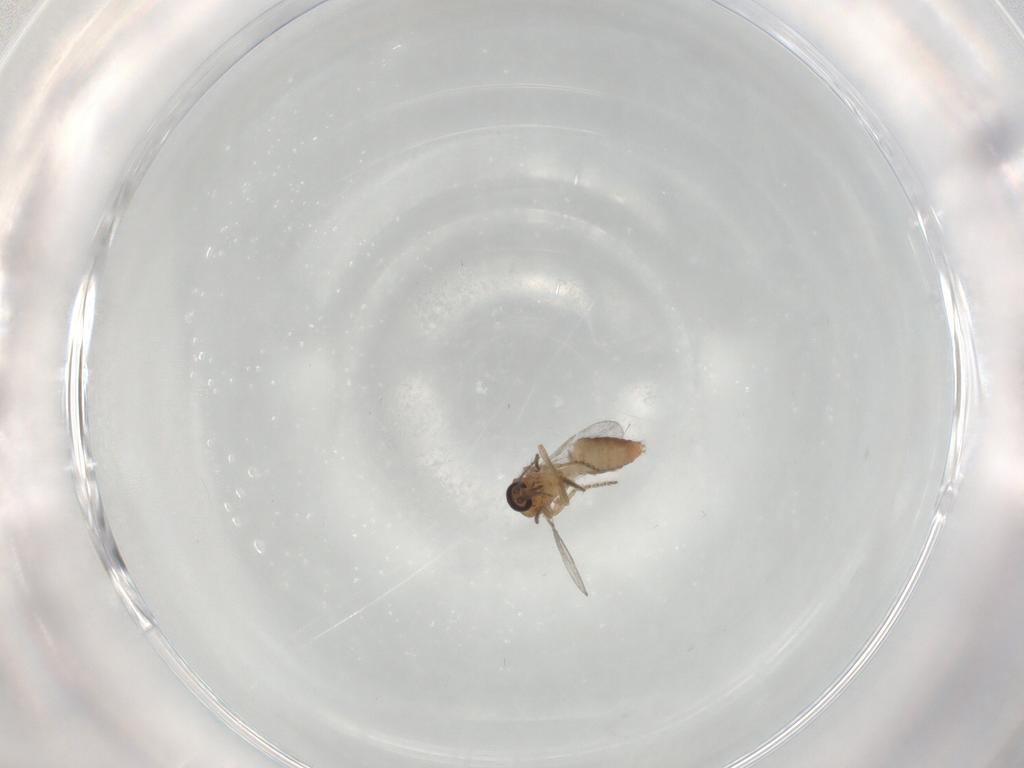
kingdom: Animalia
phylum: Arthropoda
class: Insecta
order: Diptera
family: Ceratopogonidae
